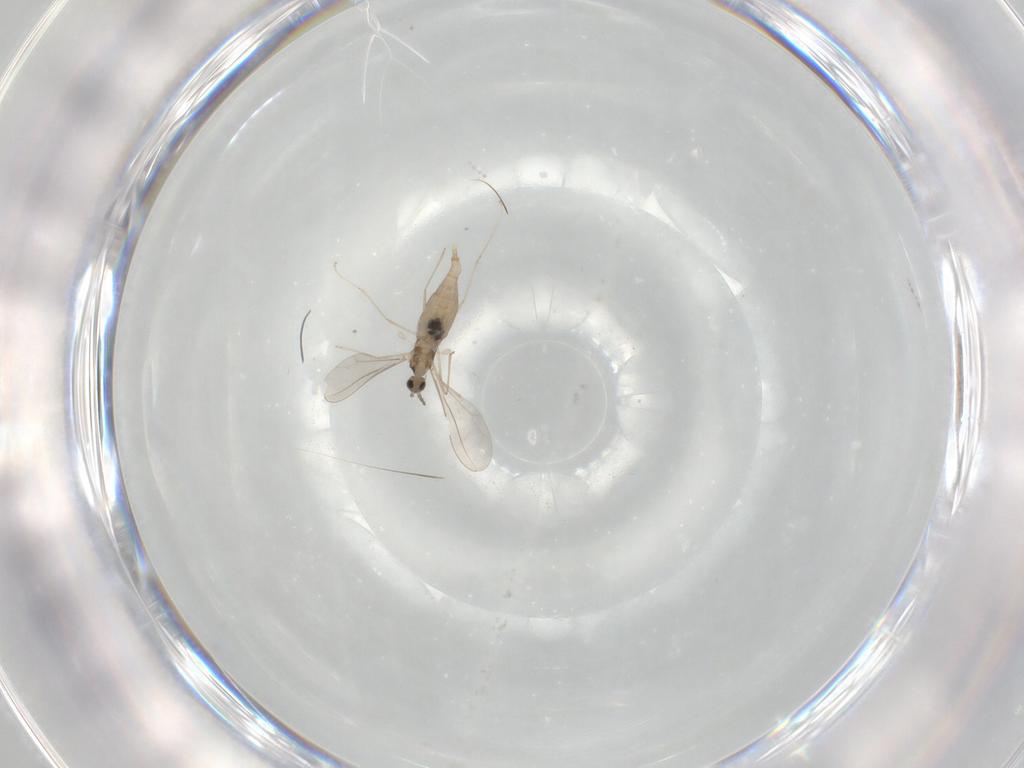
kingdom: Animalia
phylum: Arthropoda
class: Insecta
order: Diptera
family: Cecidomyiidae
